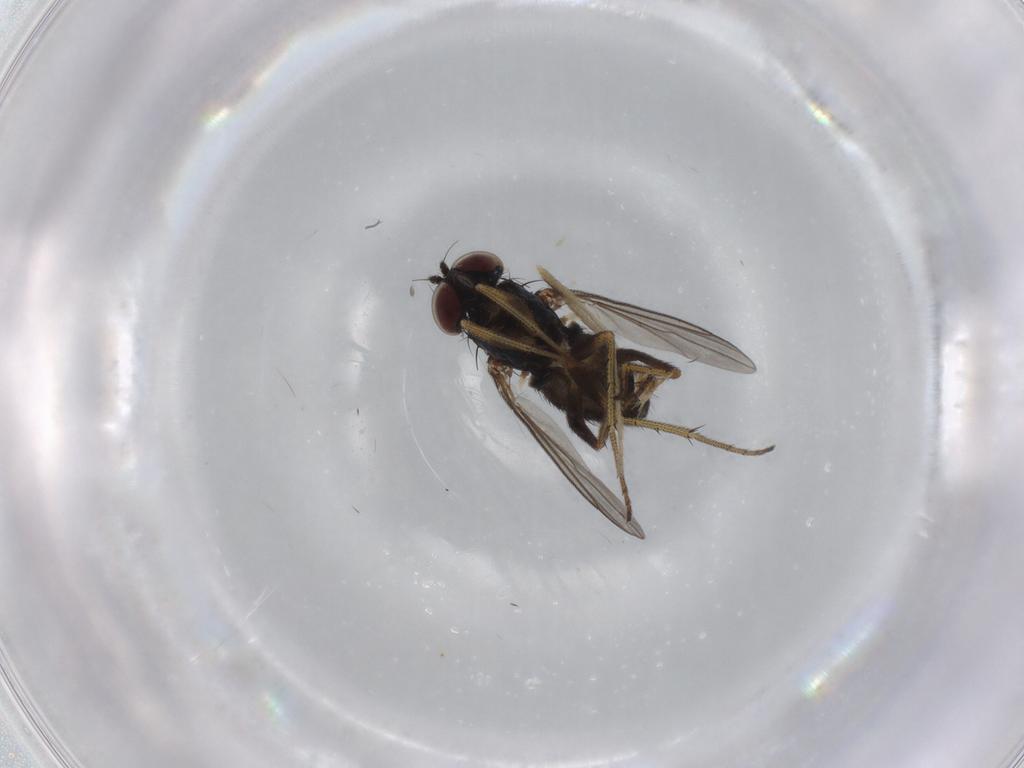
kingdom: Animalia
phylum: Arthropoda
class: Insecta
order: Diptera
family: Limoniidae
